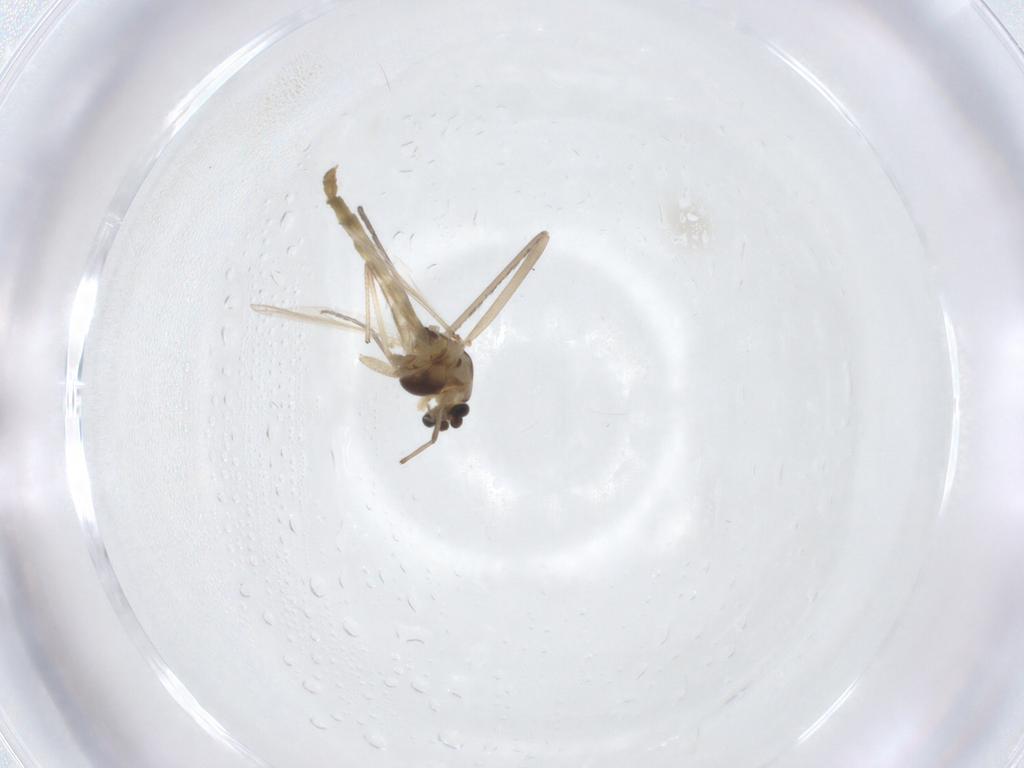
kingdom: Animalia
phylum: Arthropoda
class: Insecta
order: Diptera
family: Chironomidae
